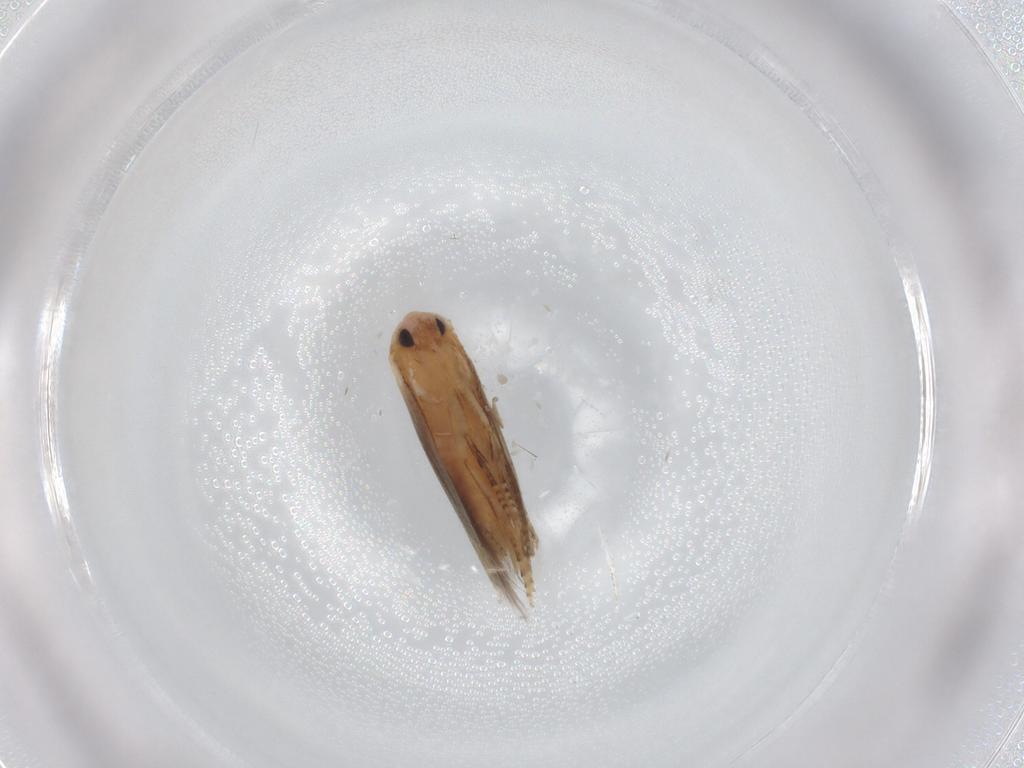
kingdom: Animalia
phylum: Arthropoda
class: Insecta
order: Lepidoptera
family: Bucculatricidae
